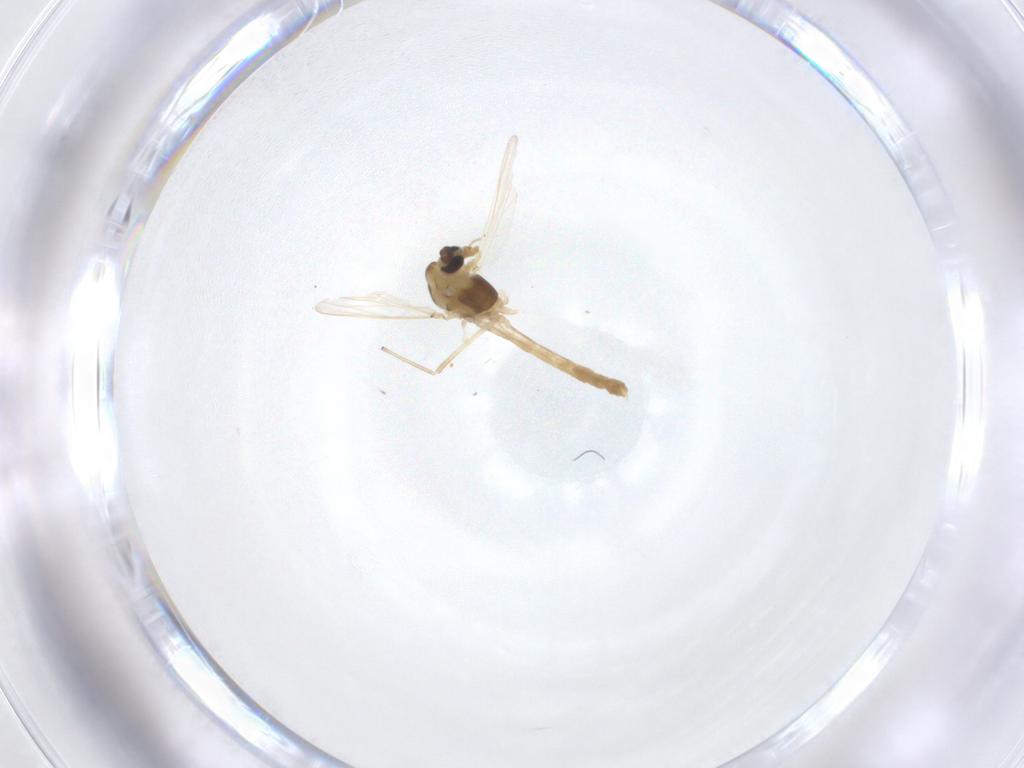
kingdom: Animalia
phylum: Arthropoda
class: Insecta
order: Diptera
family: Chironomidae
